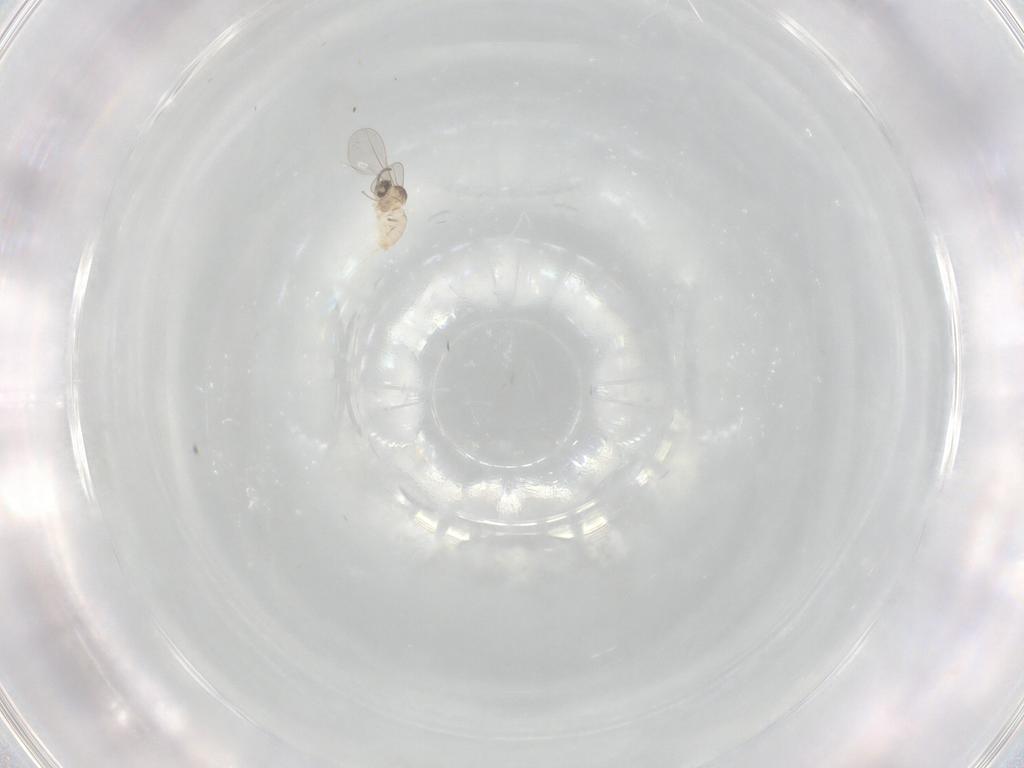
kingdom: Animalia
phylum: Arthropoda
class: Insecta
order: Diptera
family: Cecidomyiidae
